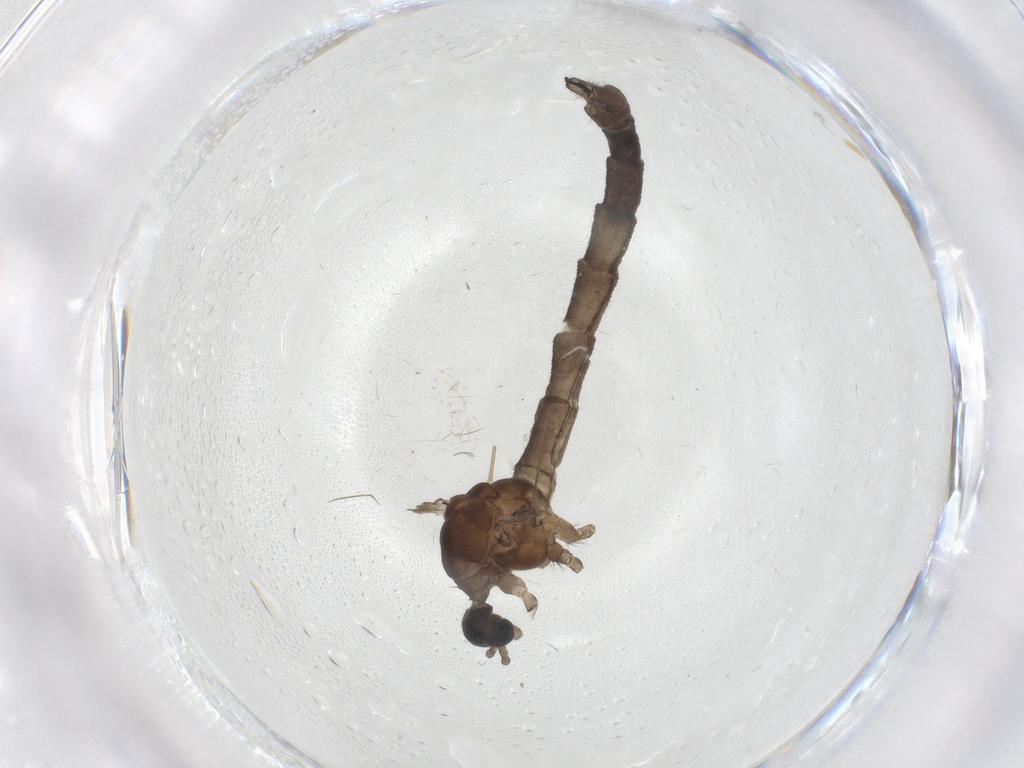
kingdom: Animalia
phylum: Arthropoda
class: Insecta
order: Diptera
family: Limoniidae
